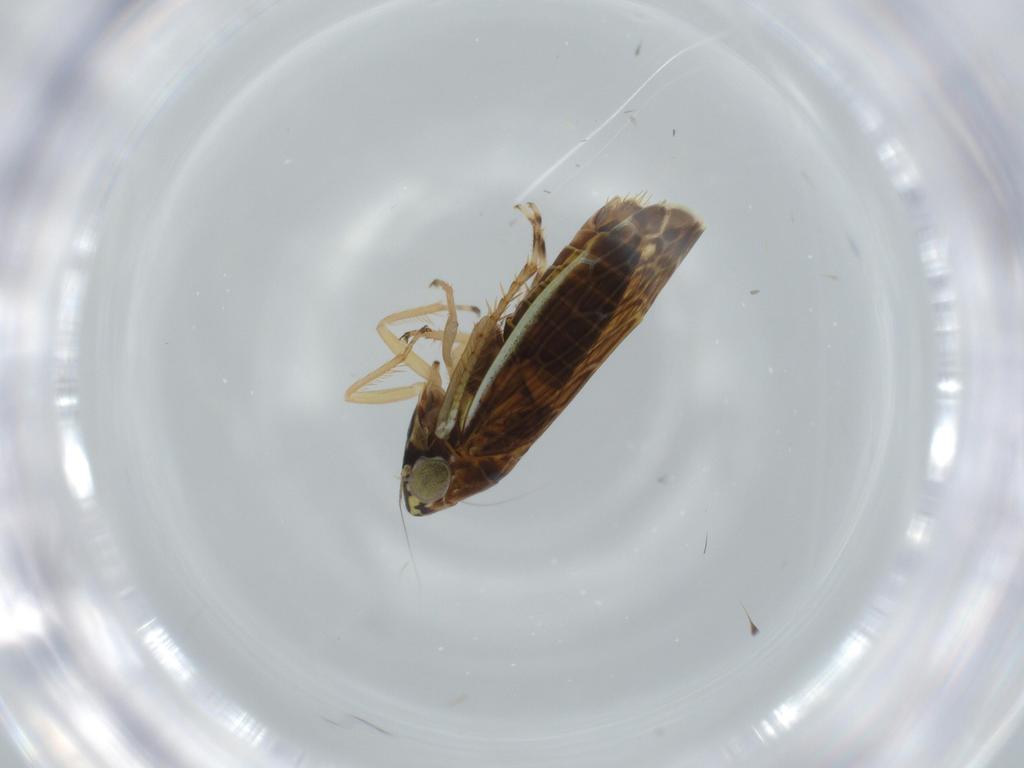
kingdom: Animalia
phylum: Arthropoda
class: Insecta
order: Hemiptera
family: Cicadellidae
